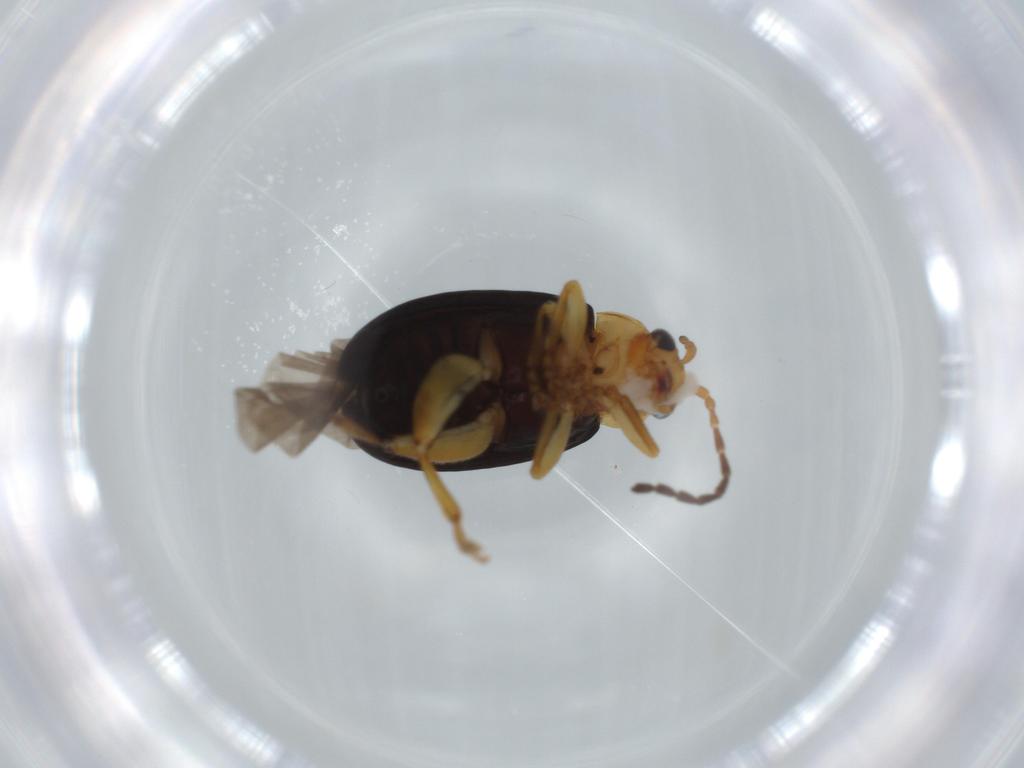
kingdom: Animalia
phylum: Arthropoda
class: Insecta
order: Coleoptera
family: Chrysomelidae
